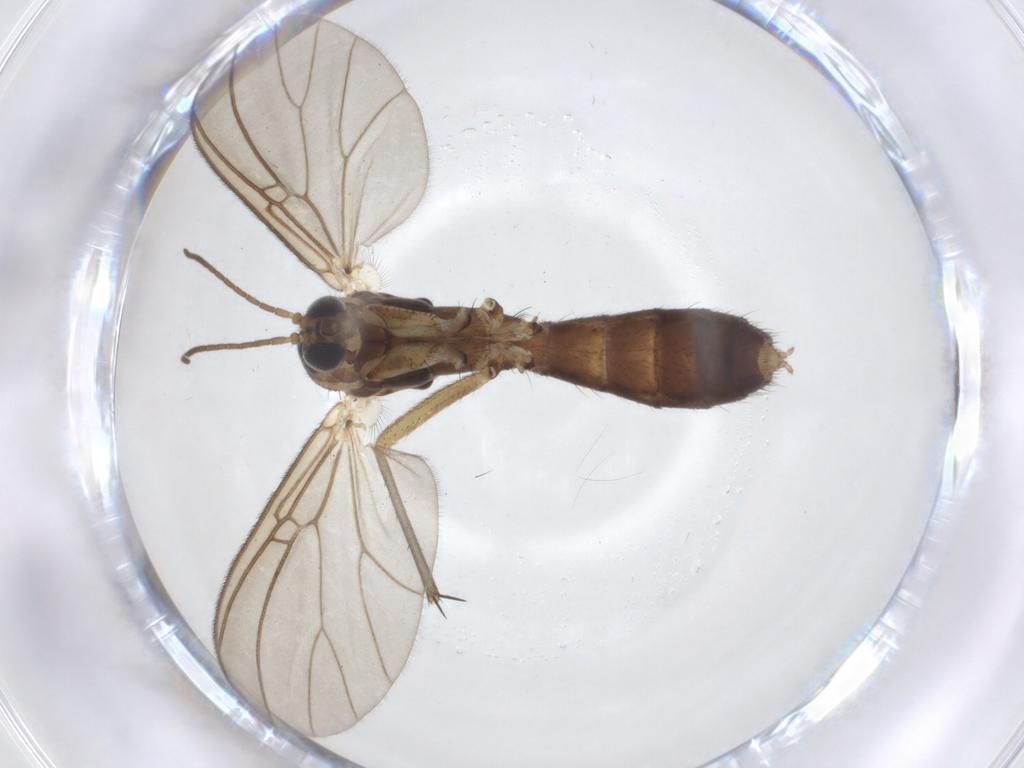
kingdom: Animalia
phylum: Arthropoda
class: Insecta
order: Diptera
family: Mycetophilidae
